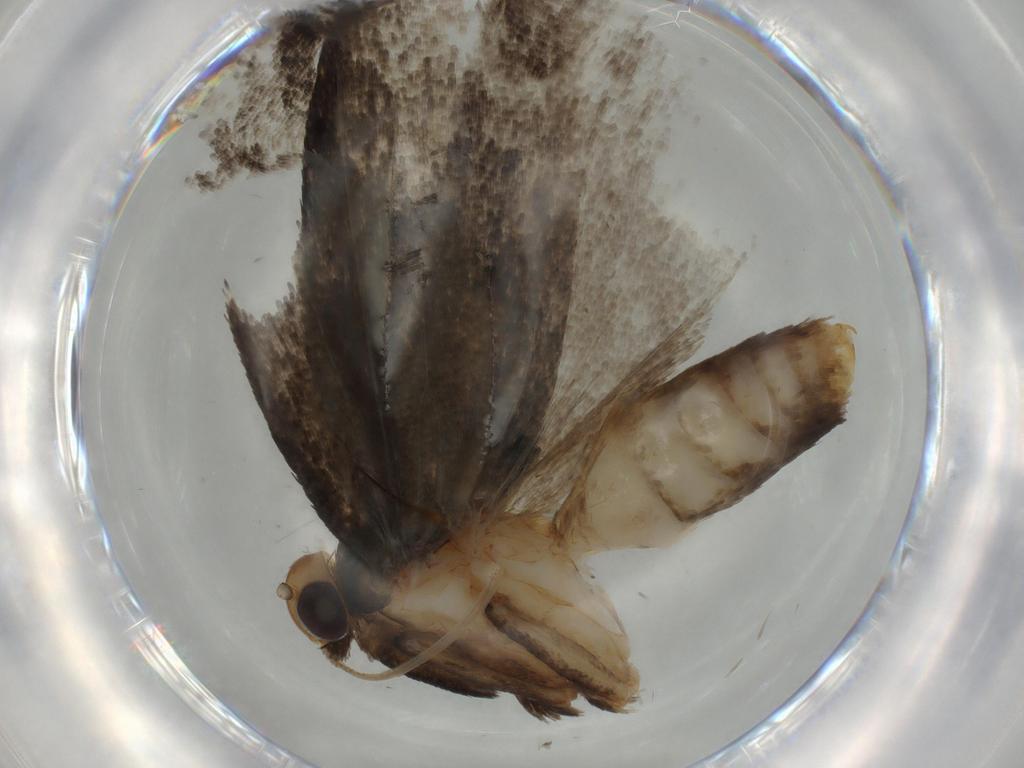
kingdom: Animalia
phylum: Arthropoda
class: Insecta
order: Lepidoptera
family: Oecophoridae
